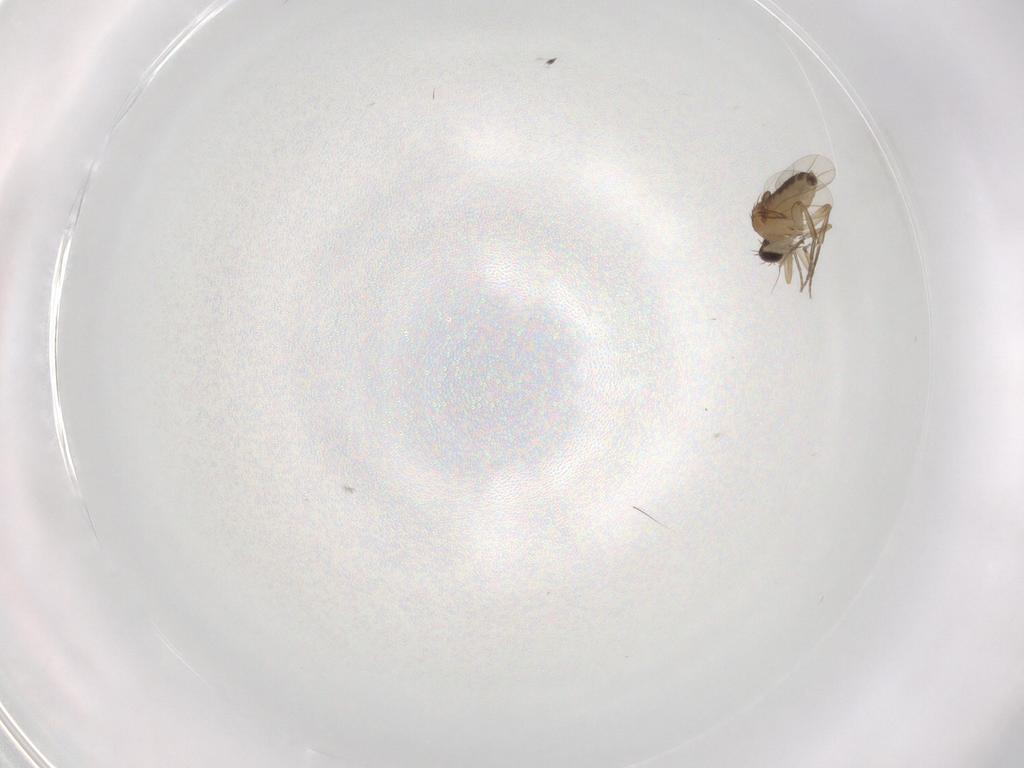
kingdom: Animalia
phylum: Arthropoda
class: Insecta
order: Diptera
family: Phoridae
